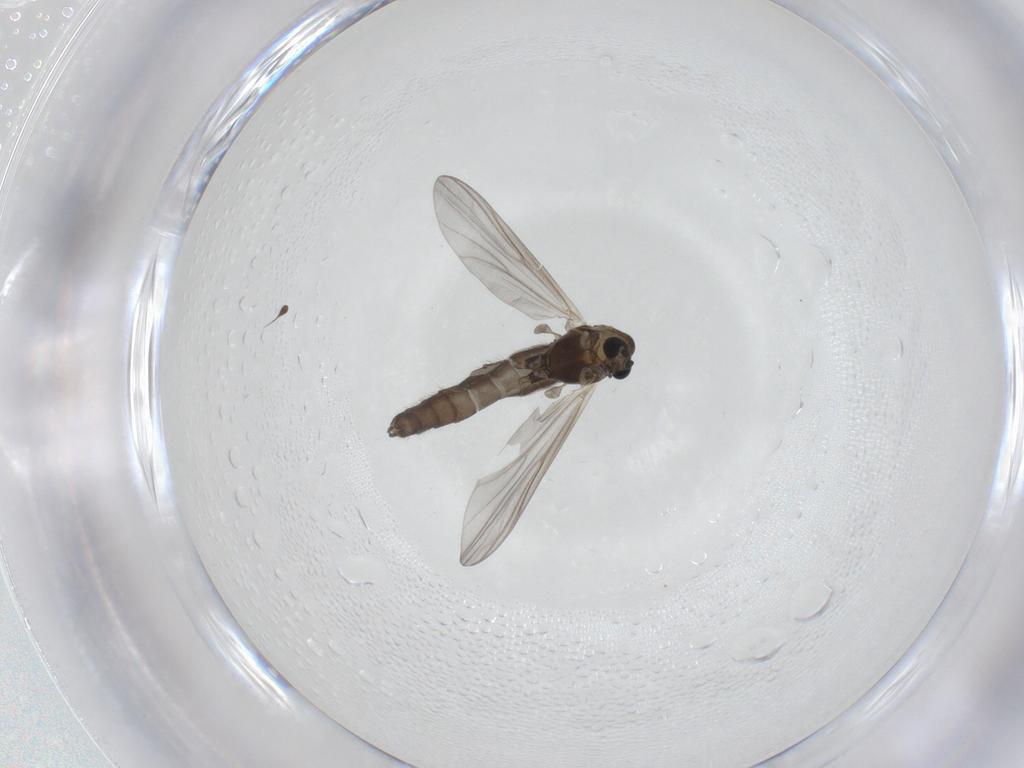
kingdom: Animalia
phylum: Arthropoda
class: Insecta
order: Diptera
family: Chironomidae
